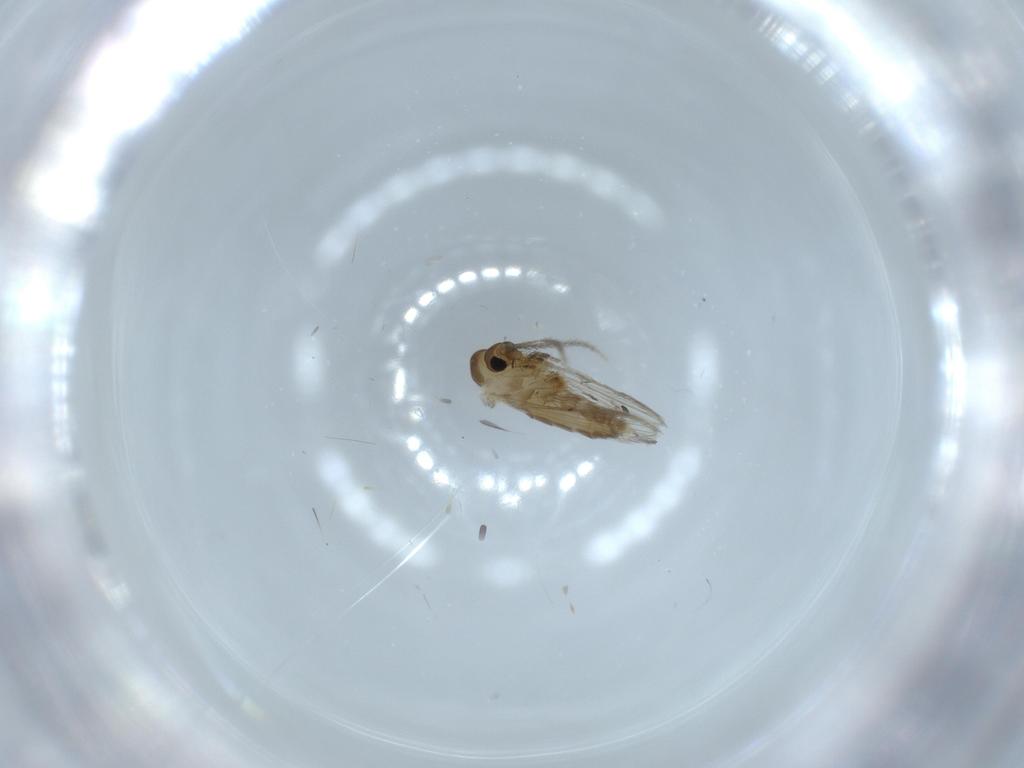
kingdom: Animalia
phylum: Arthropoda
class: Insecta
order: Diptera
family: Psychodidae
